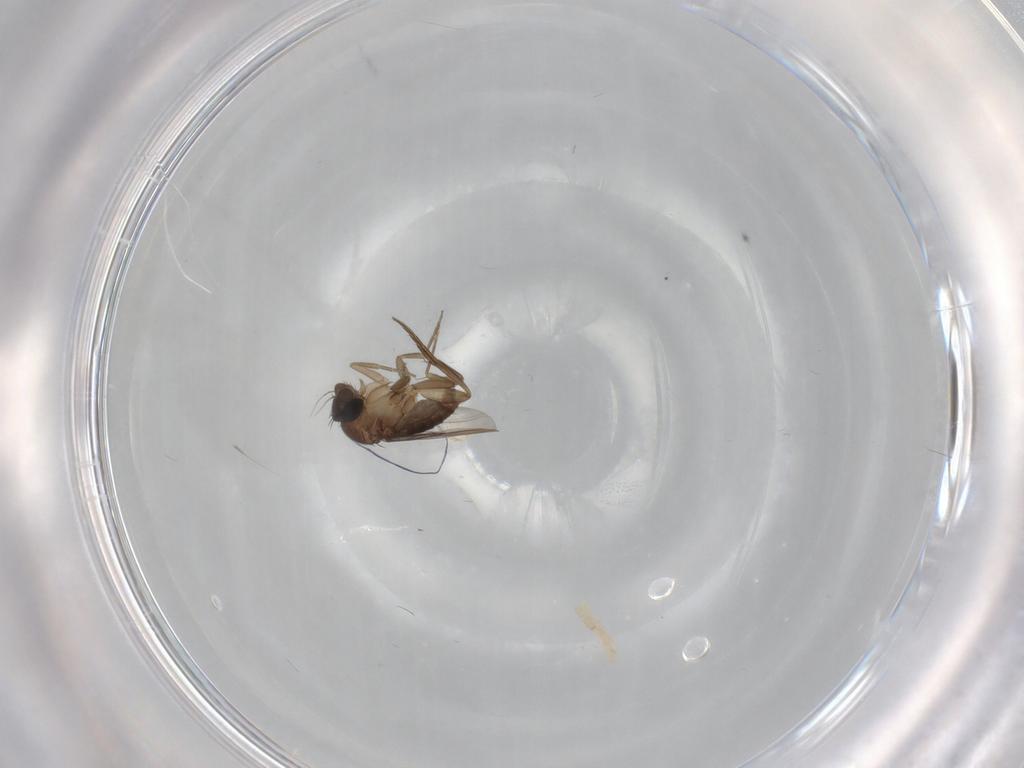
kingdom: Animalia
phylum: Arthropoda
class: Insecta
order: Diptera
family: Phoridae
